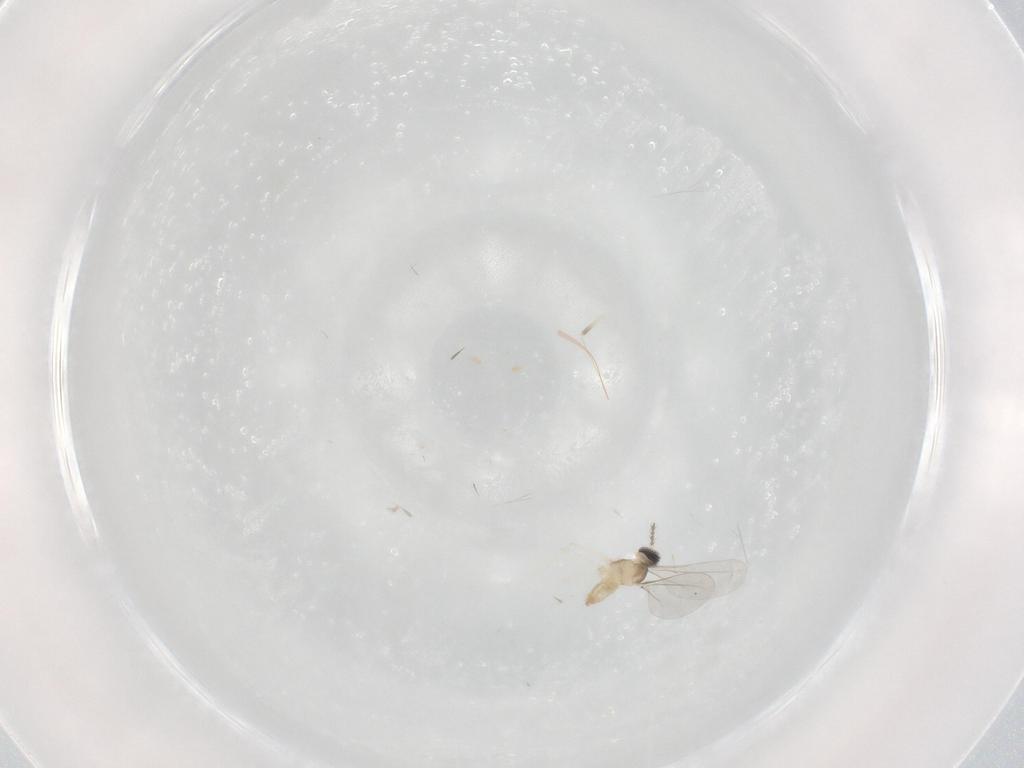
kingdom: Animalia
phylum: Arthropoda
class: Insecta
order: Diptera
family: Cecidomyiidae
